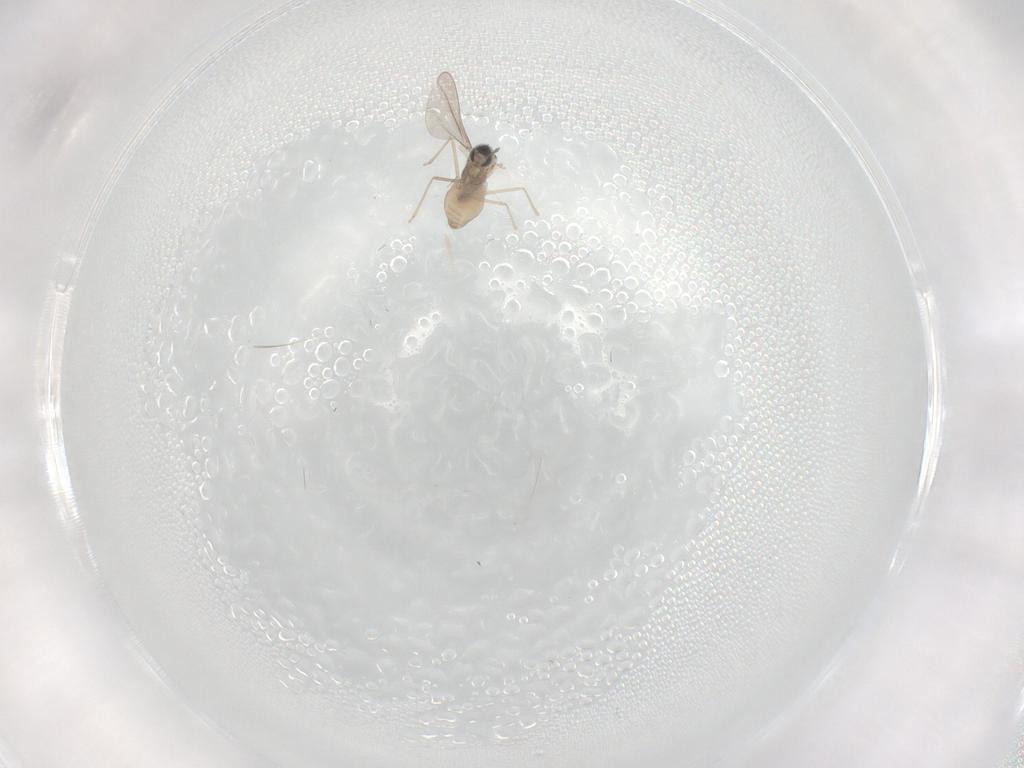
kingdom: Animalia
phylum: Arthropoda
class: Insecta
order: Diptera
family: Cecidomyiidae
